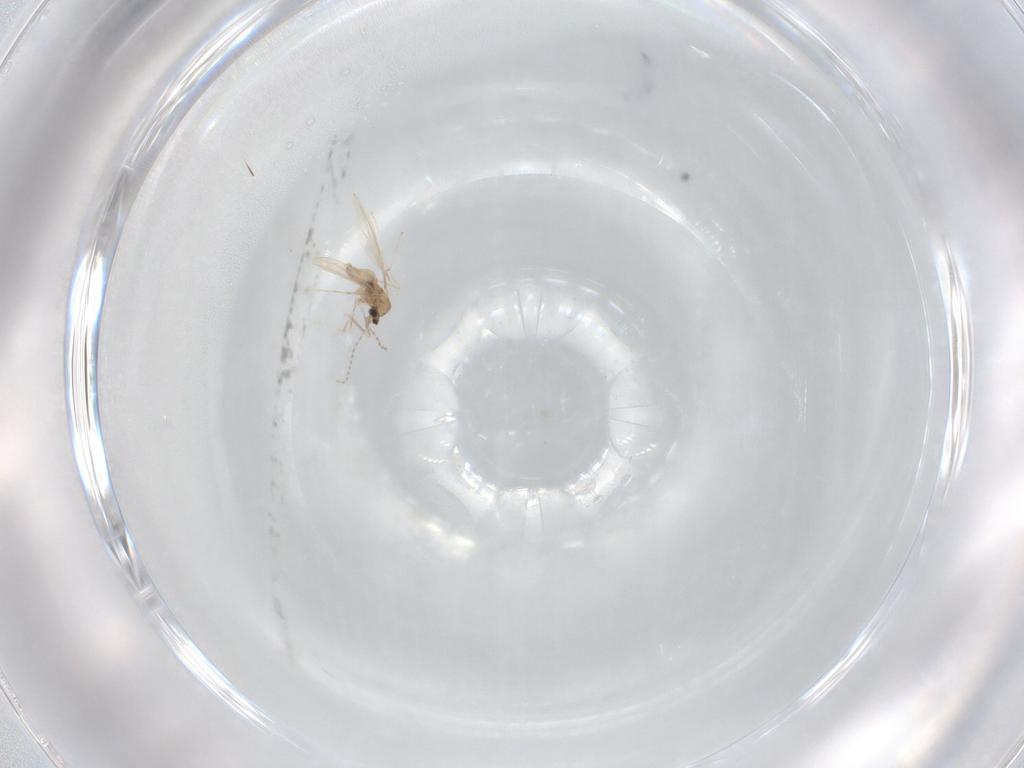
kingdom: Animalia
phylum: Arthropoda
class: Insecta
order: Diptera
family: Cecidomyiidae
